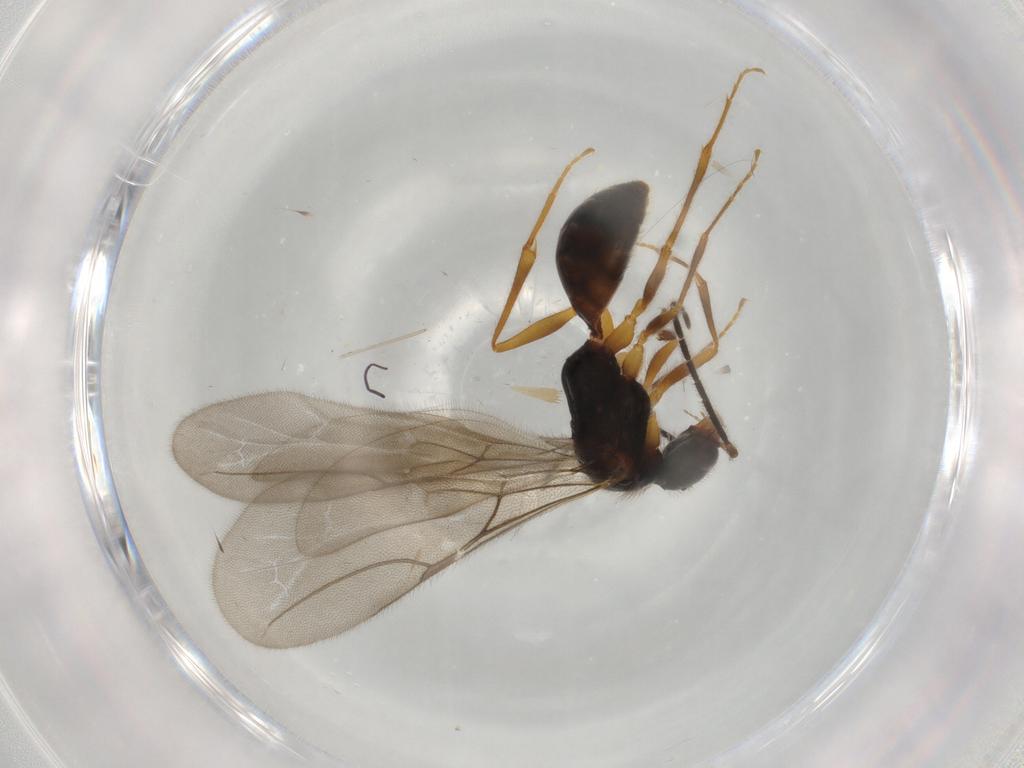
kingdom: Animalia
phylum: Arthropoda
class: Insecta
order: Hymenoptera
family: Bethylidae
